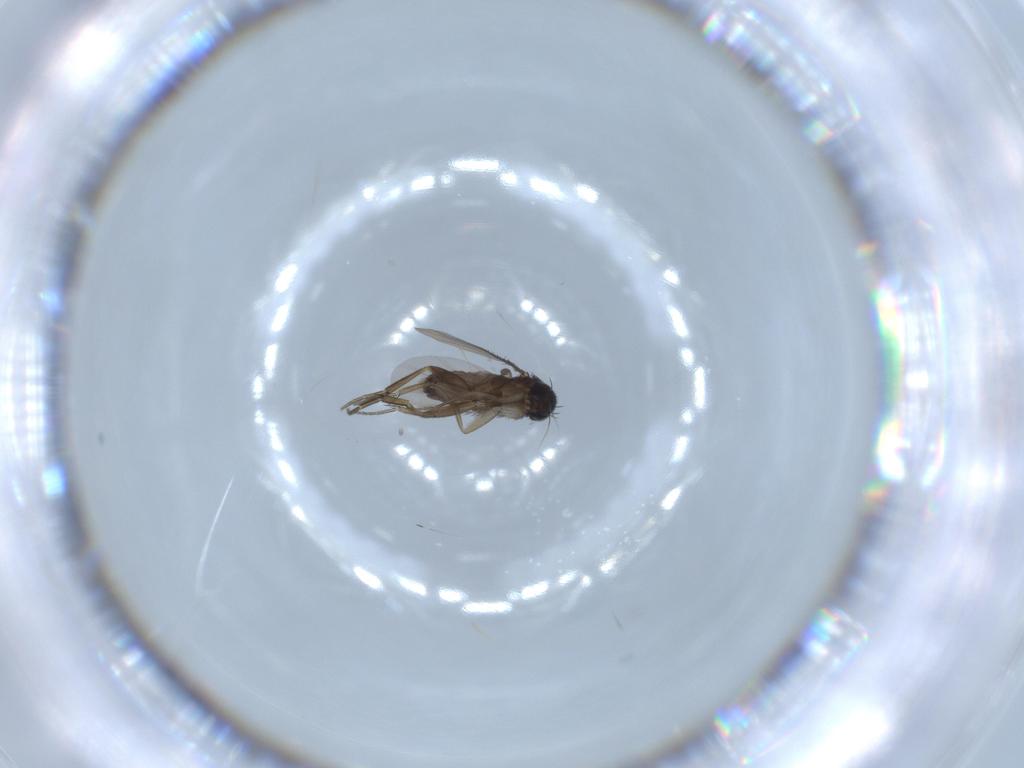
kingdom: Animalia
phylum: Arthropoda
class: Insecta
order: Diptera
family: Phoridae
